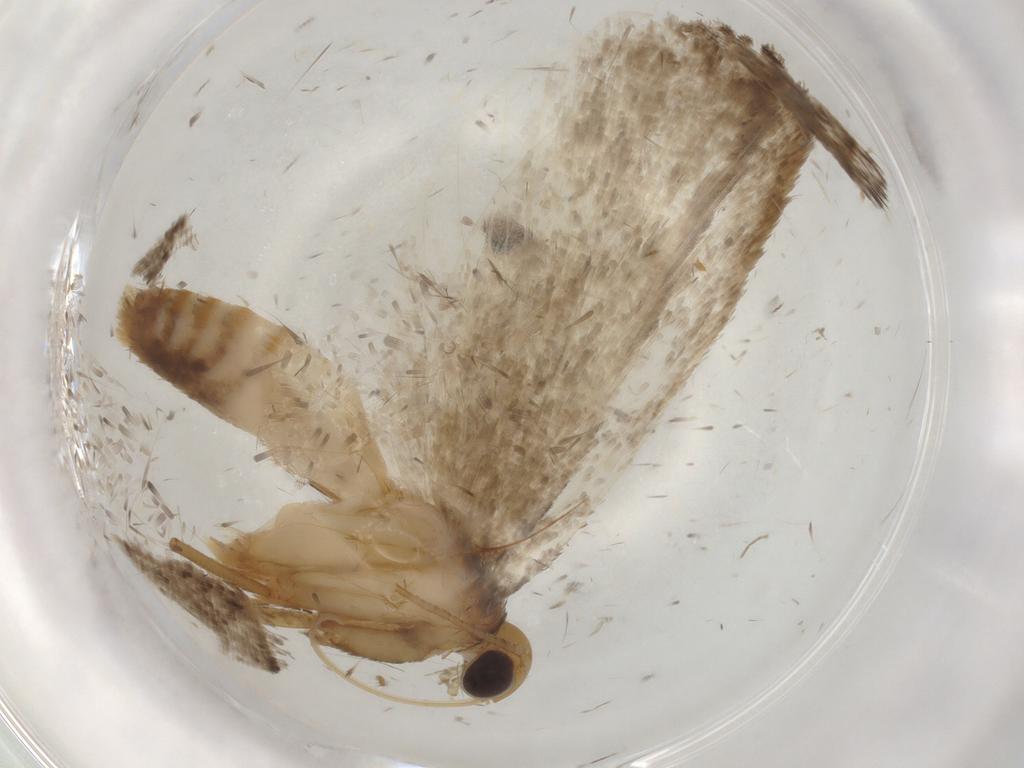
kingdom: Animalia
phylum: Arthropoda
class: Insecta
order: Lepidoptera
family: Oecophoridae
